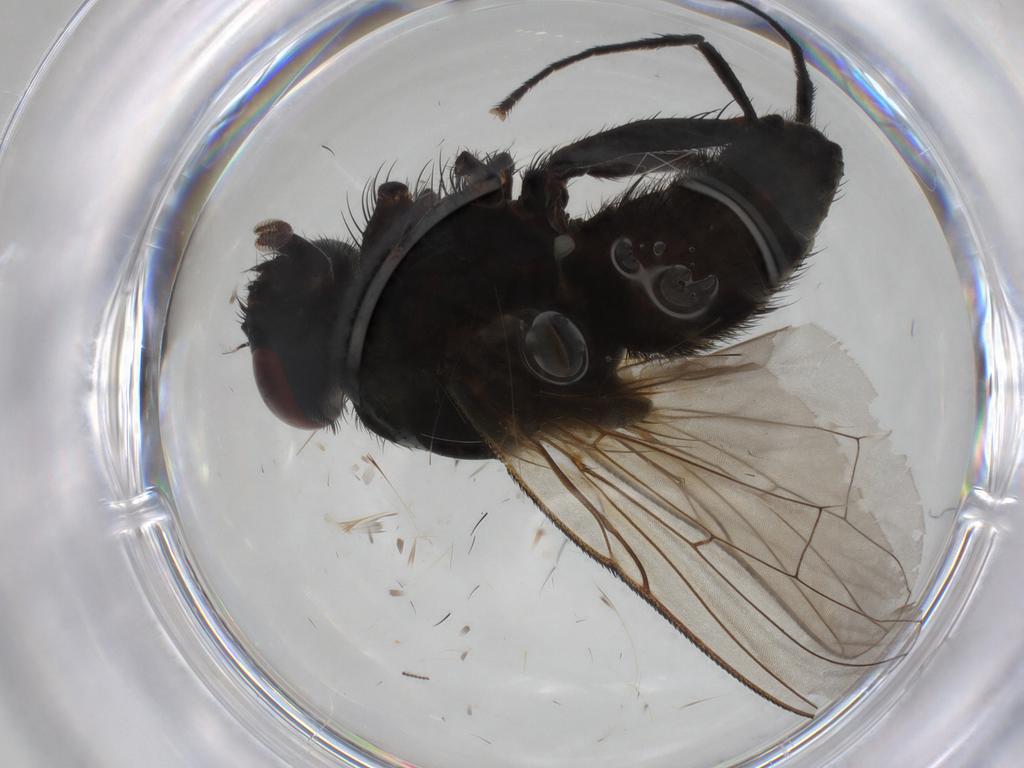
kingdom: Animalia
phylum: Arthropoda
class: Insecta
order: Diptera
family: Muscidae
